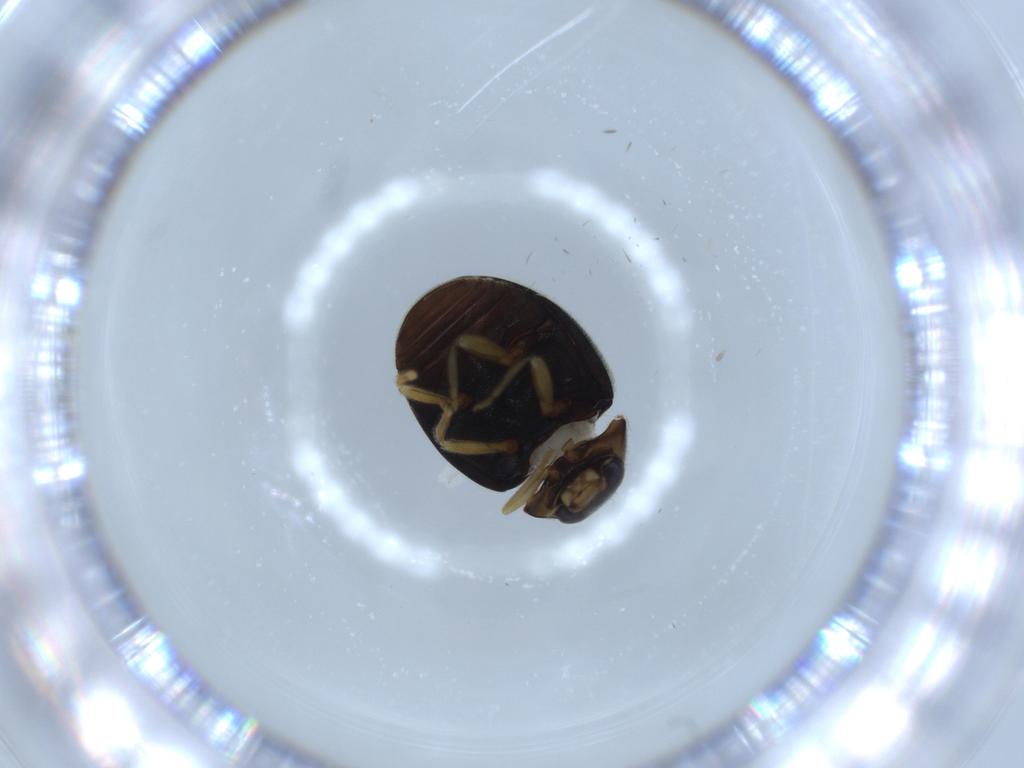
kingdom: Animalia
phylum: Arthropoda
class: Insecta
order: Coleoptera
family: Coccinellidae
